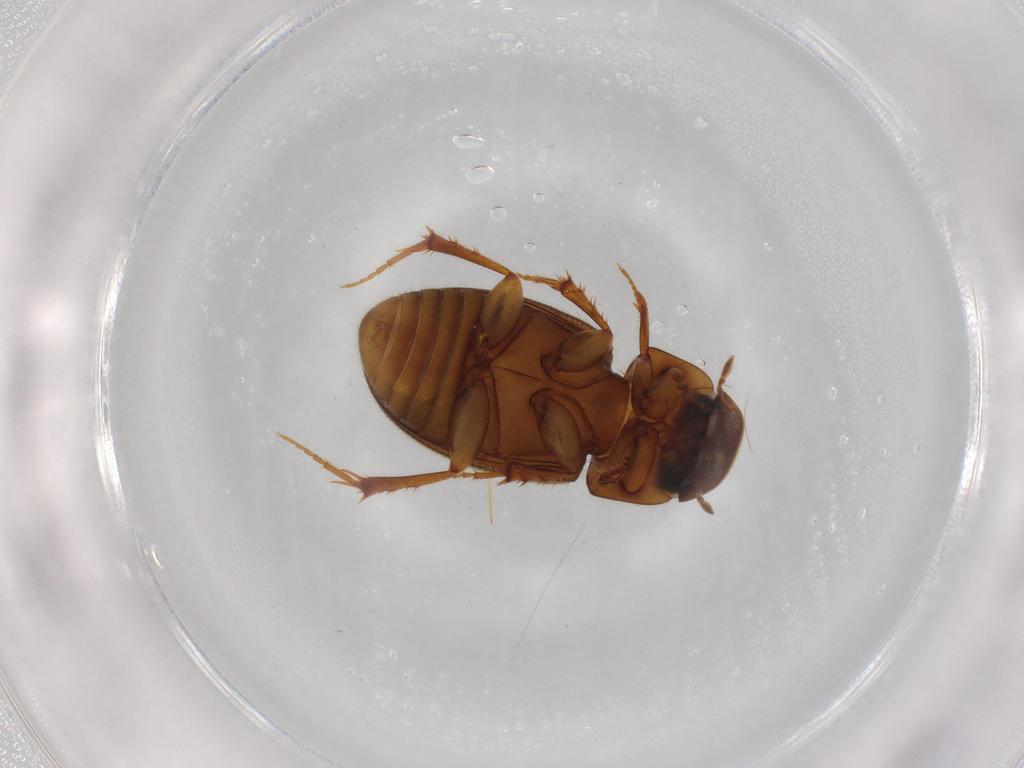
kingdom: Animalia
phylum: Arthropoda
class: Insecta
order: Coleoptera
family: Scarabaeidae
